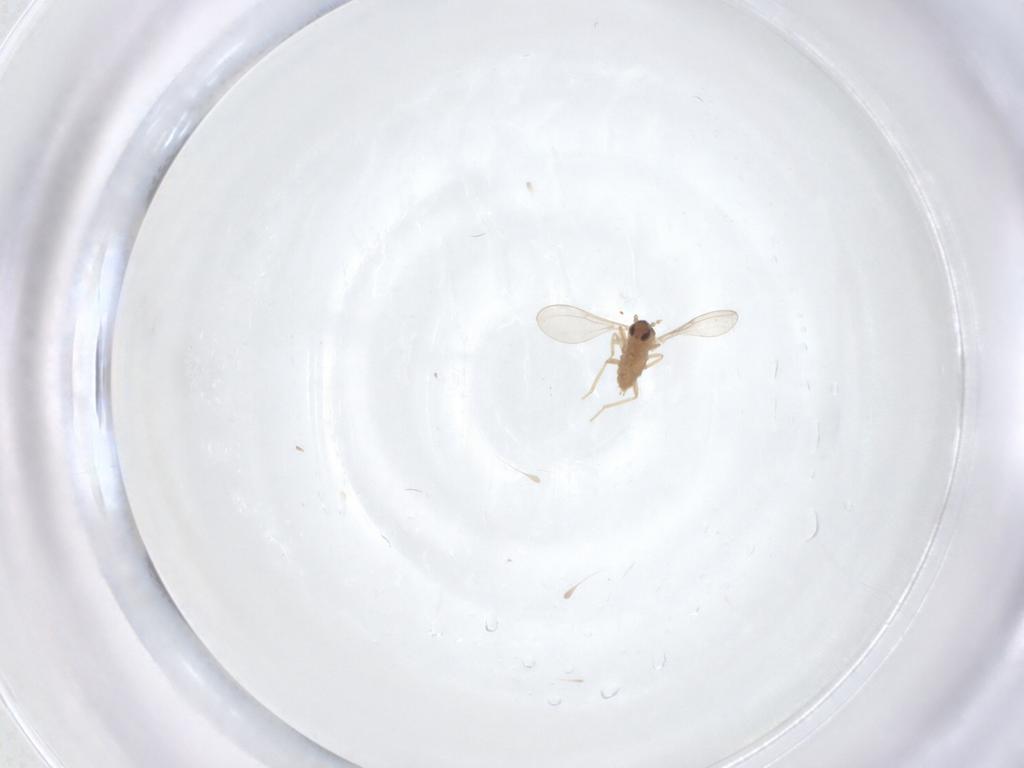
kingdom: Animalia
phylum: Arthropoda
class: Insecta
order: Diptera
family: Cecidomyiidae
